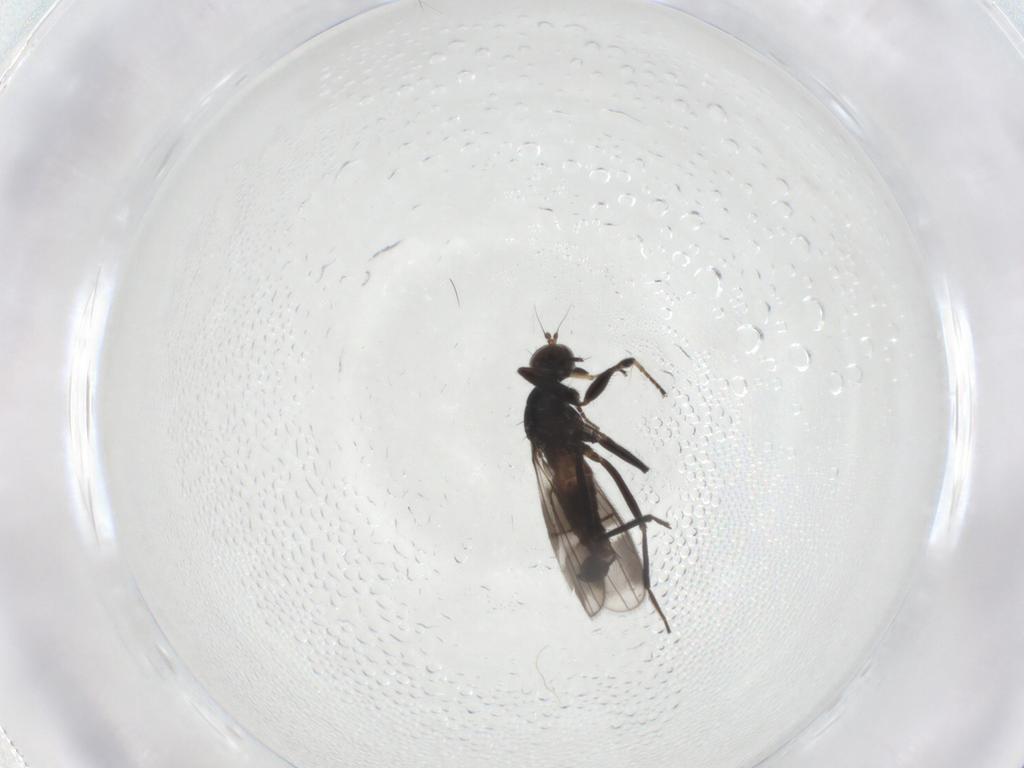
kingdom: Animalia
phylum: Arthropoda
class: Insecta
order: Diptera
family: Hybotidae
